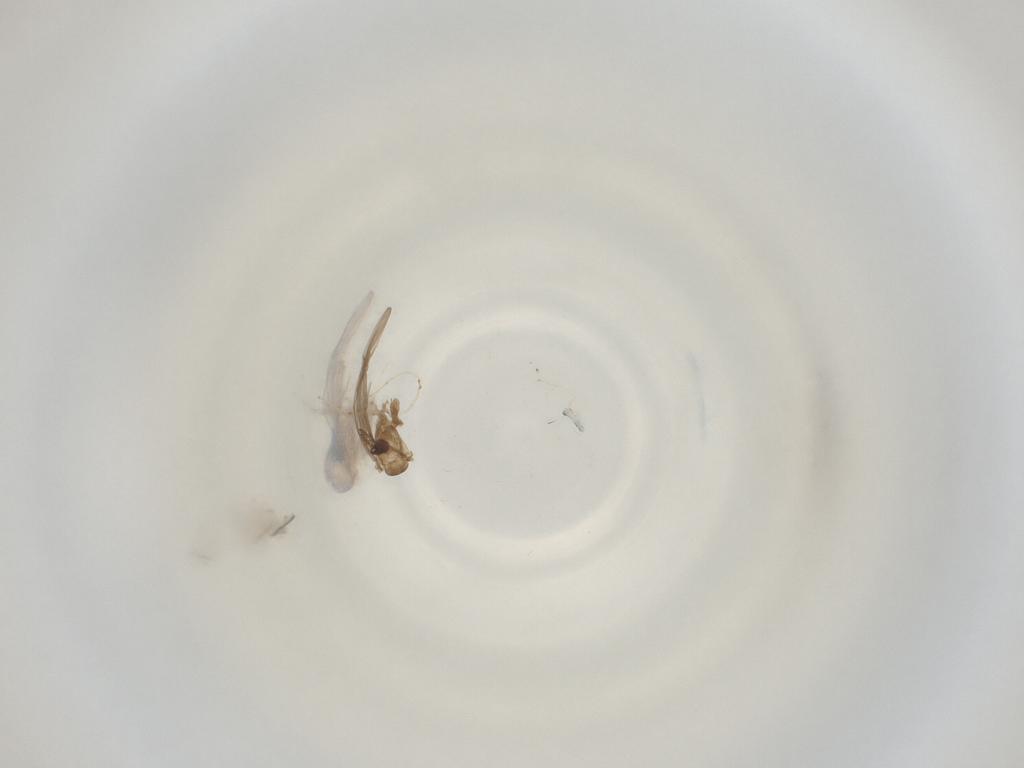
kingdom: Animalia
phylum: Arthropoda
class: Insecta
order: Diptera
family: Cecidomyiidae
